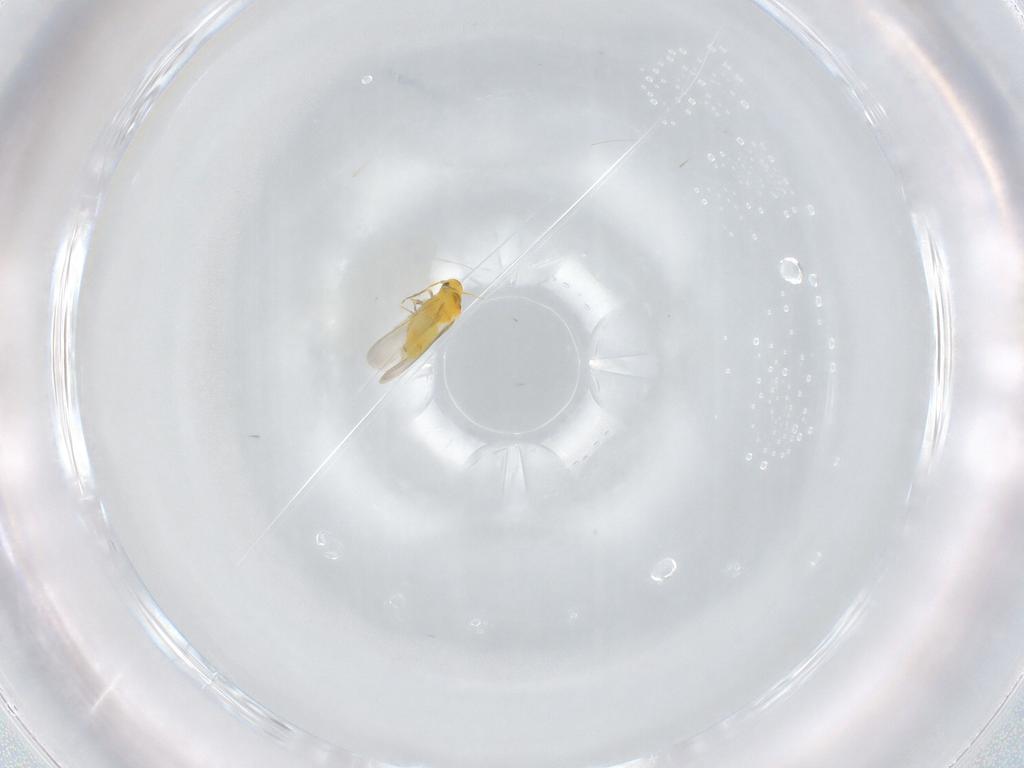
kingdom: Animalia
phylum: Arthropoda
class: Insecta
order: Hemiptera
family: Aleyrodidae
